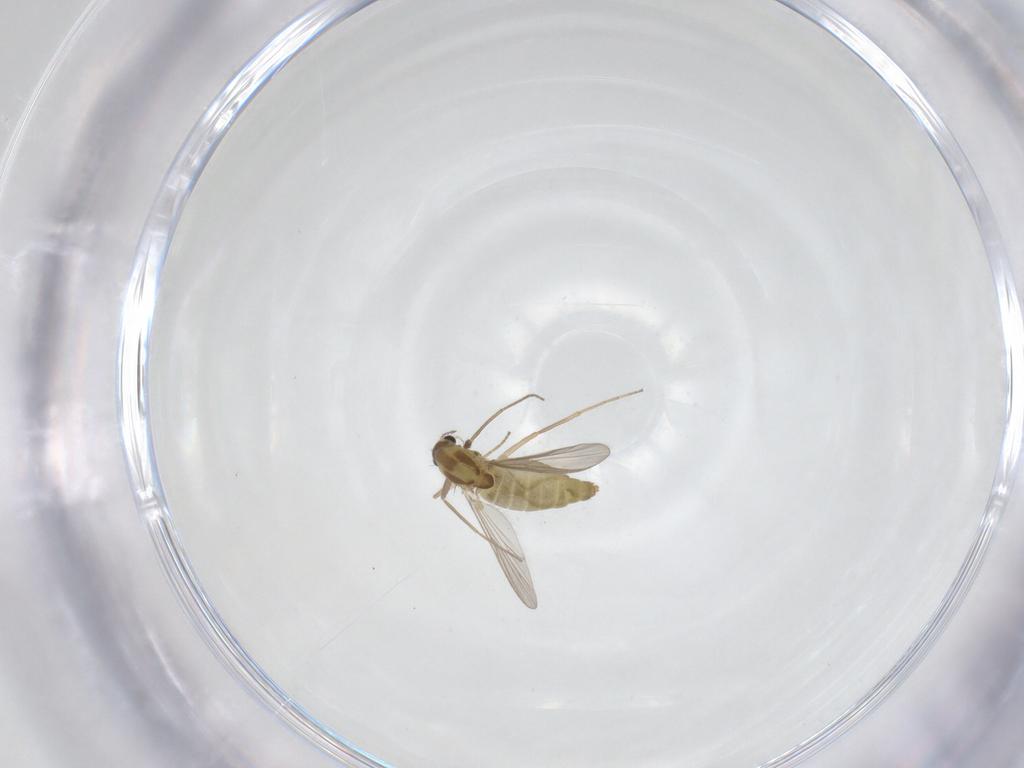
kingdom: Animalia
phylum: Arthropoda
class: Insecta
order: Diptera
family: Chironomidae
